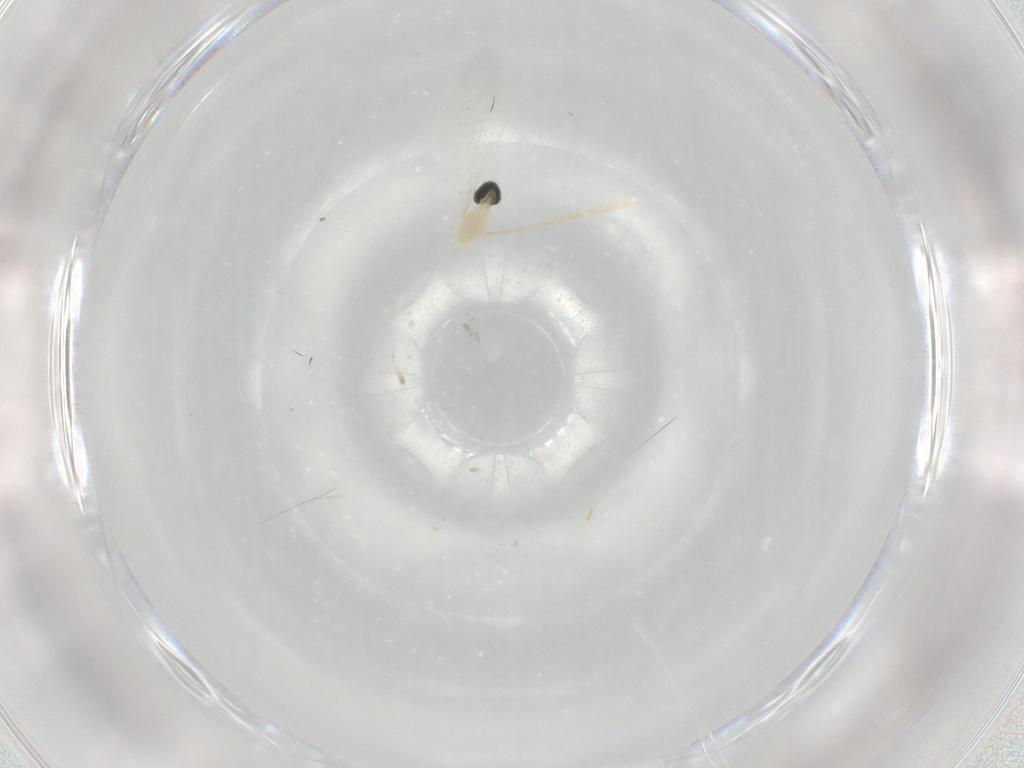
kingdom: Animalia
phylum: Arthropoda
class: Insecta
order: Diptera
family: Cecidomyiidae
